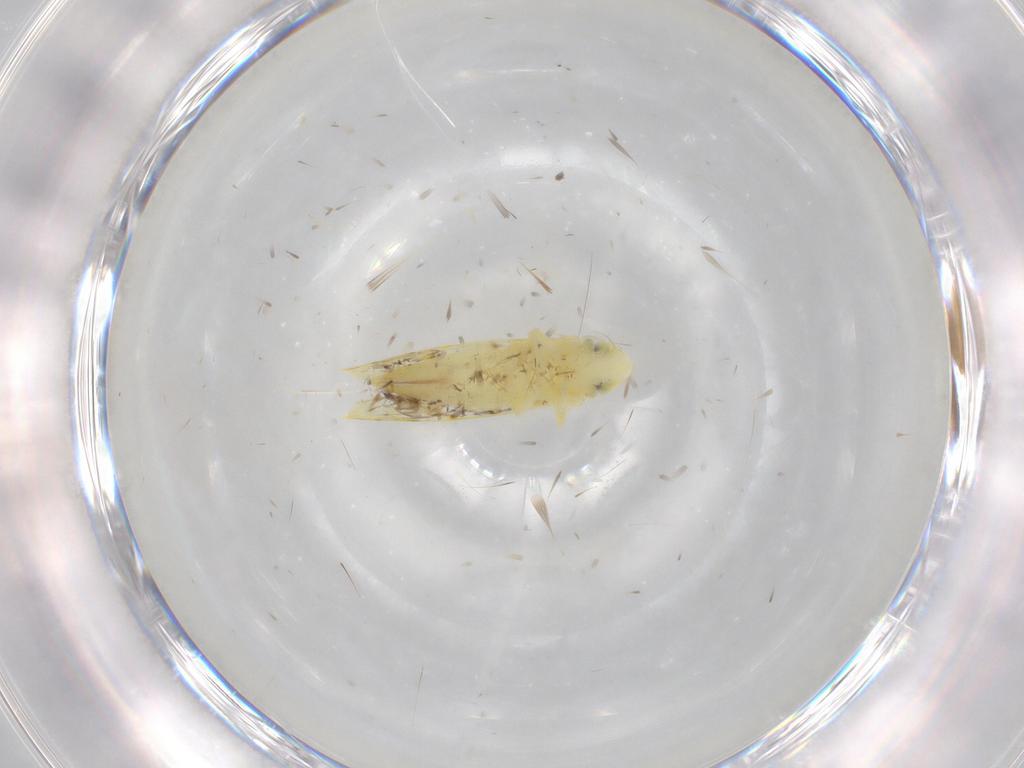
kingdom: Animalia
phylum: Arthropoda
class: Insecta
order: Hemiptera
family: Cicadellidae
